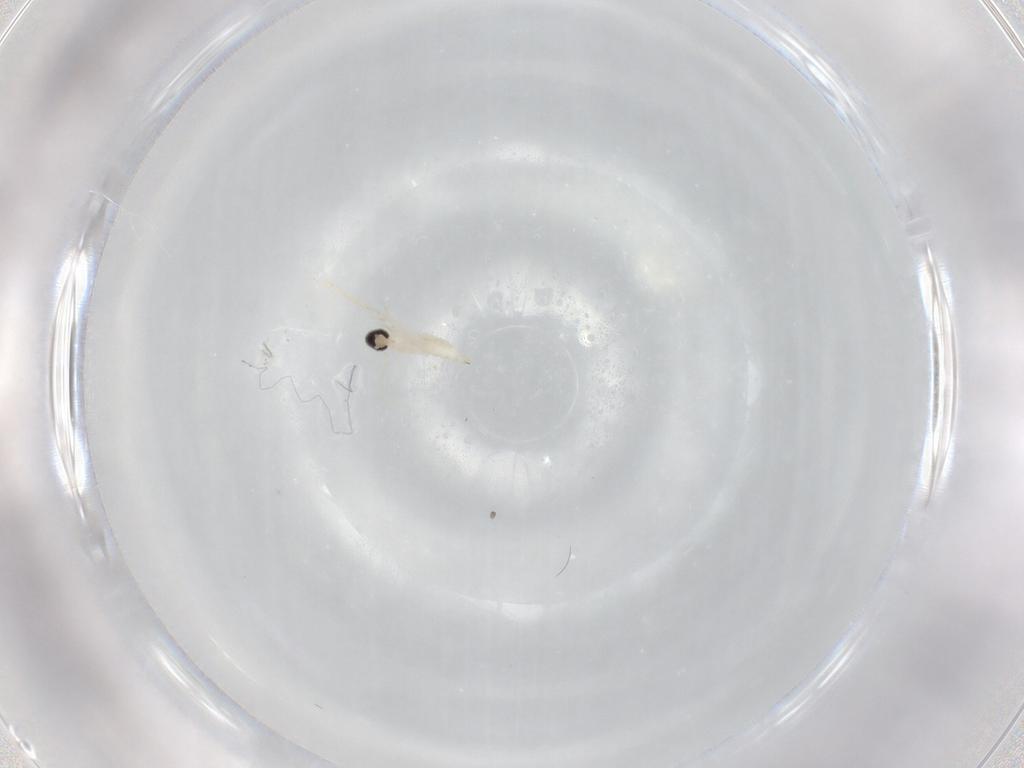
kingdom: Animalia
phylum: Arthropoda
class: Insecta
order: Diptera
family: Cecidomyiidae
